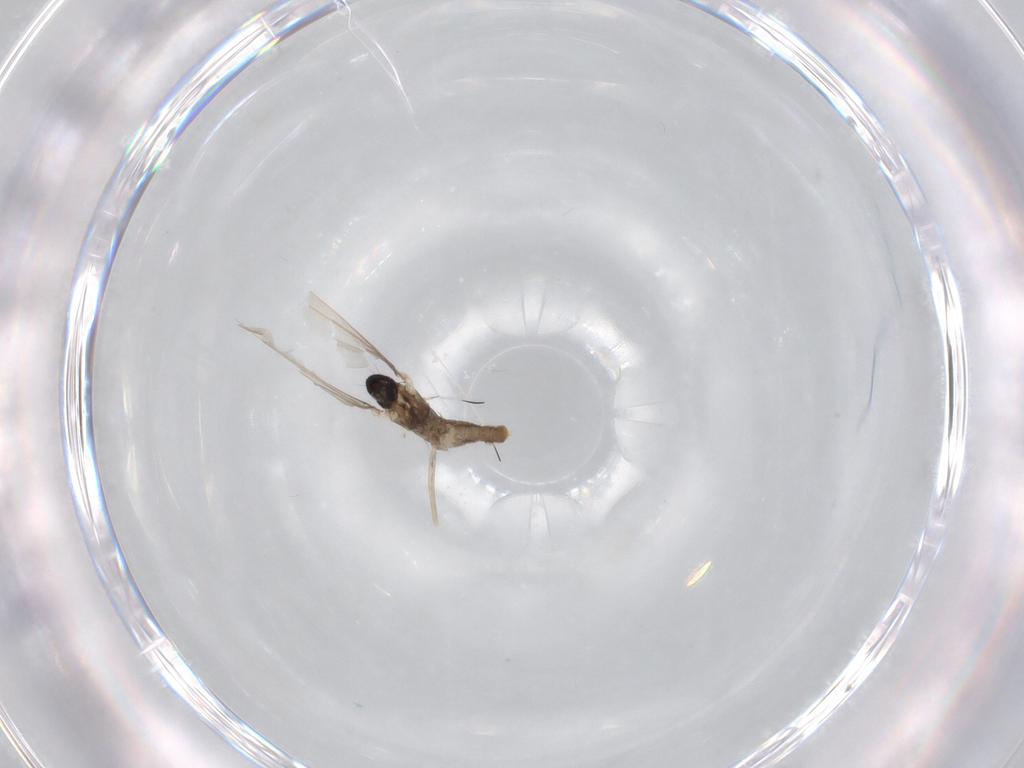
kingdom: Animalia
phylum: Arthropoda
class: Insecta
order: Diptera
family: Cecidomyiidae
